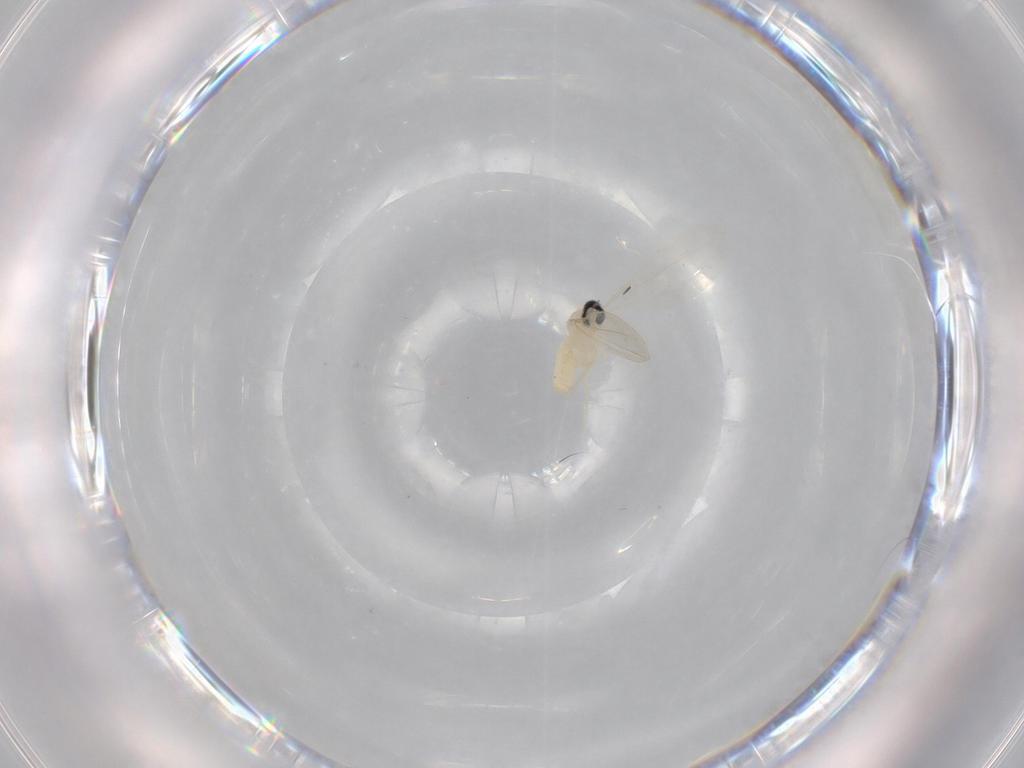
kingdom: Animalia
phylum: Arthropoda
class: Insecta
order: Diptera
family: Cecidomyiidae
